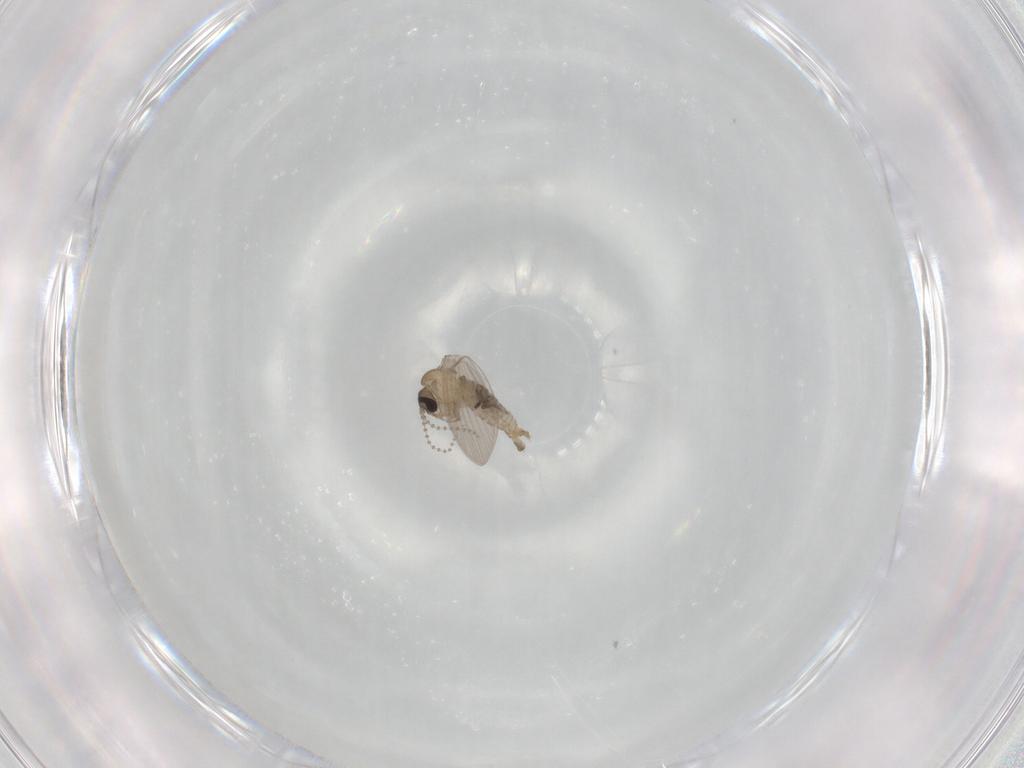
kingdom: Animalia
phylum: Arthropoda
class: Insecta
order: Diptera
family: Psychodidae
